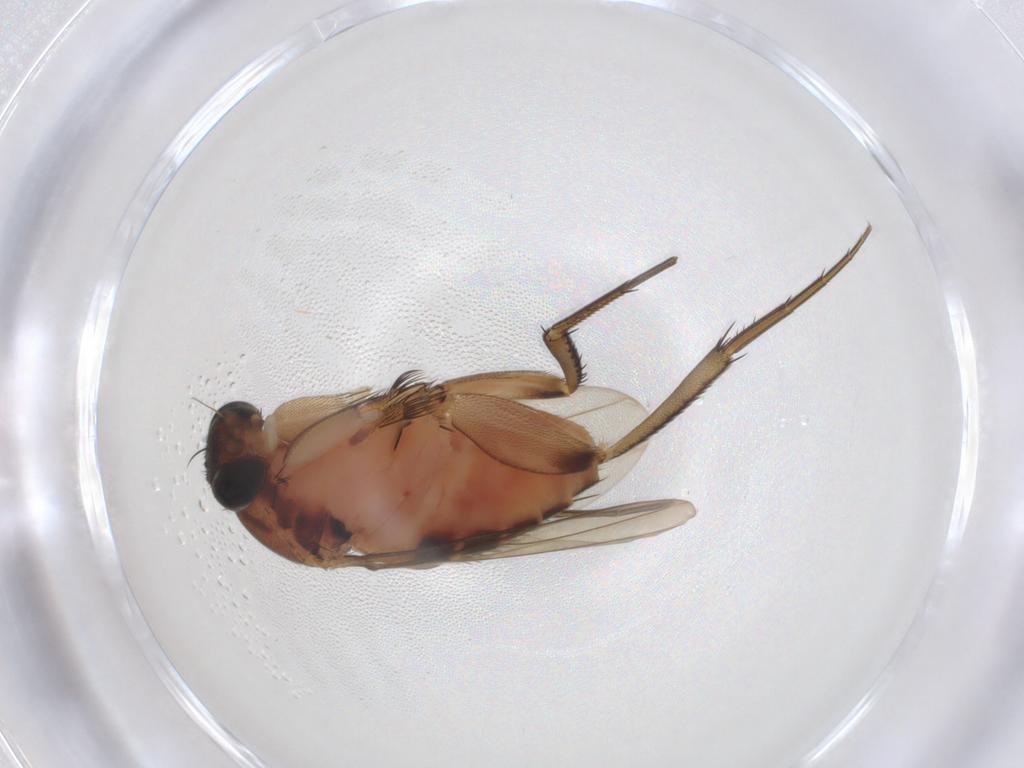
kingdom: Animalia
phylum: Arthropoda
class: Insecta
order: Diptera
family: Phoridae
